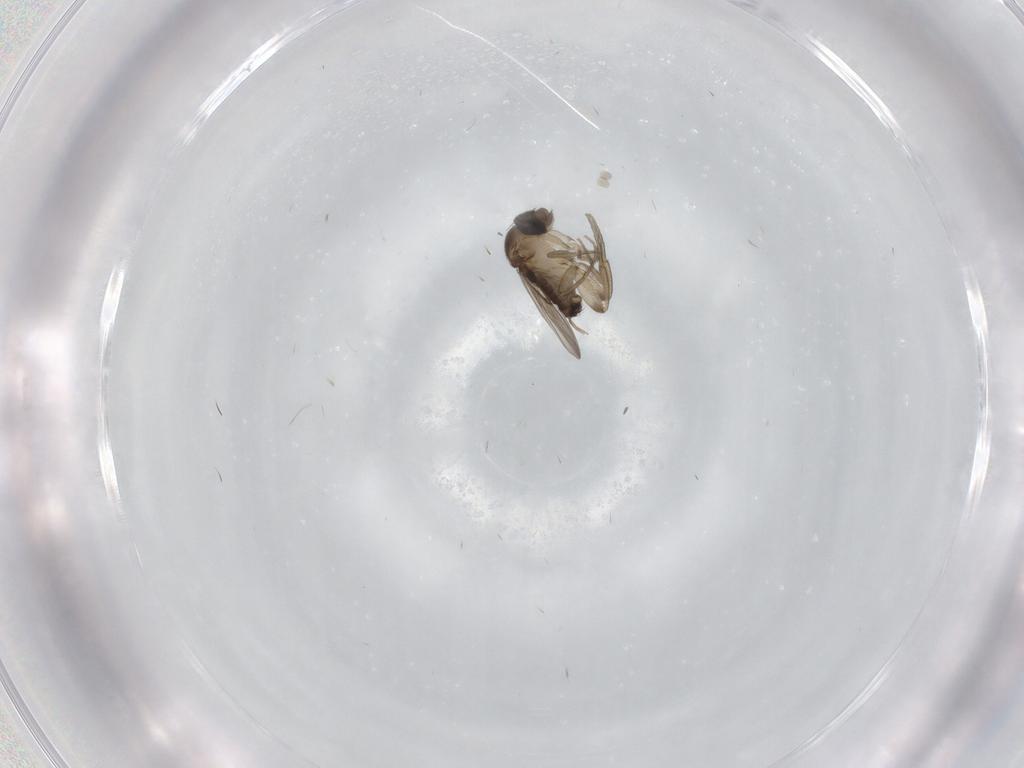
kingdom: Animalia
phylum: Arthropoda
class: Insecta
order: Diptera
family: Phoridae
